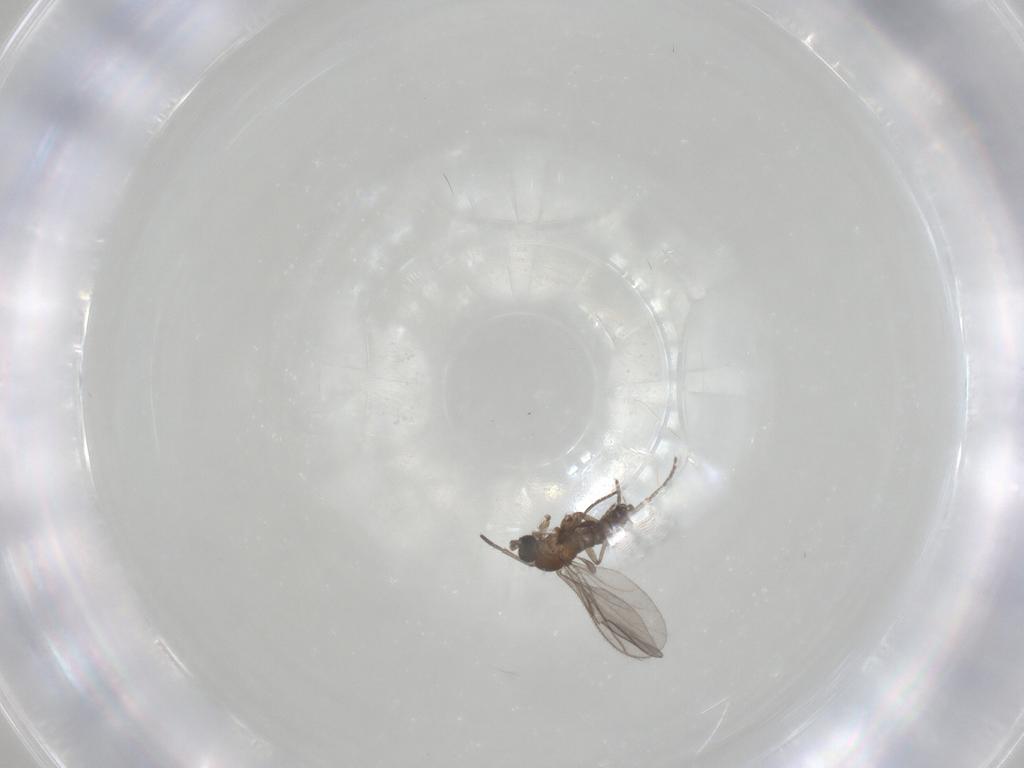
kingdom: Animalia
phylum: Arthropoda
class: Insecta
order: Diptera
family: Sciaridae
